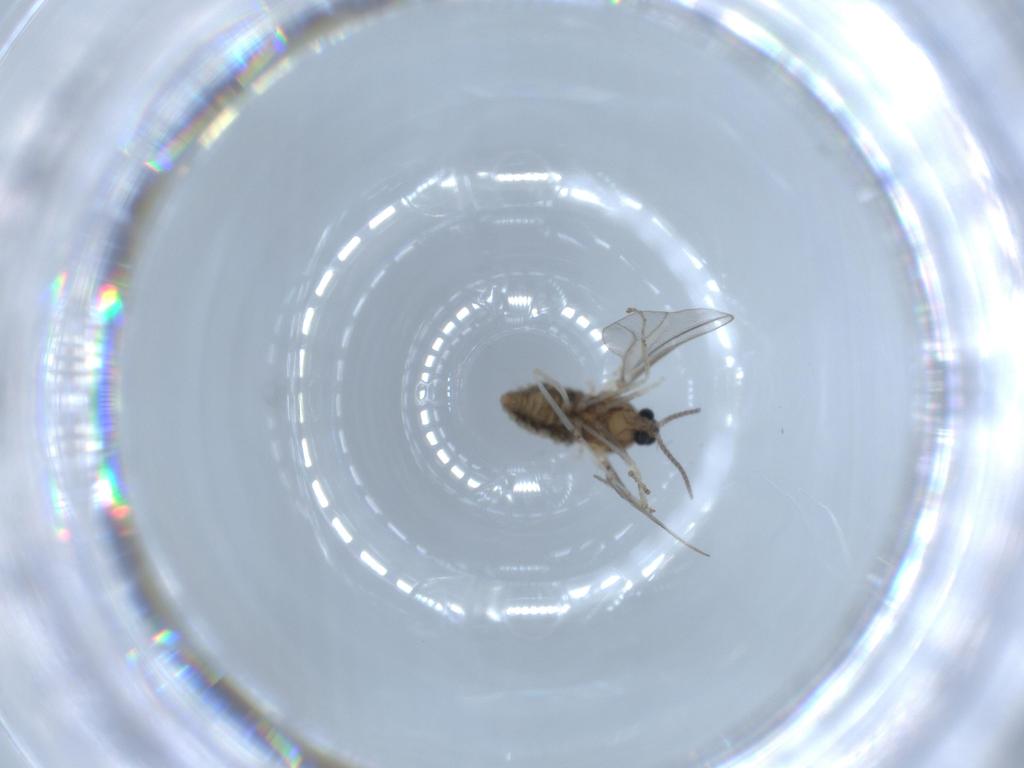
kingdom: Animalia
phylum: Arthropoda
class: Insecta
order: Diptera
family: Cecidomyiidae
